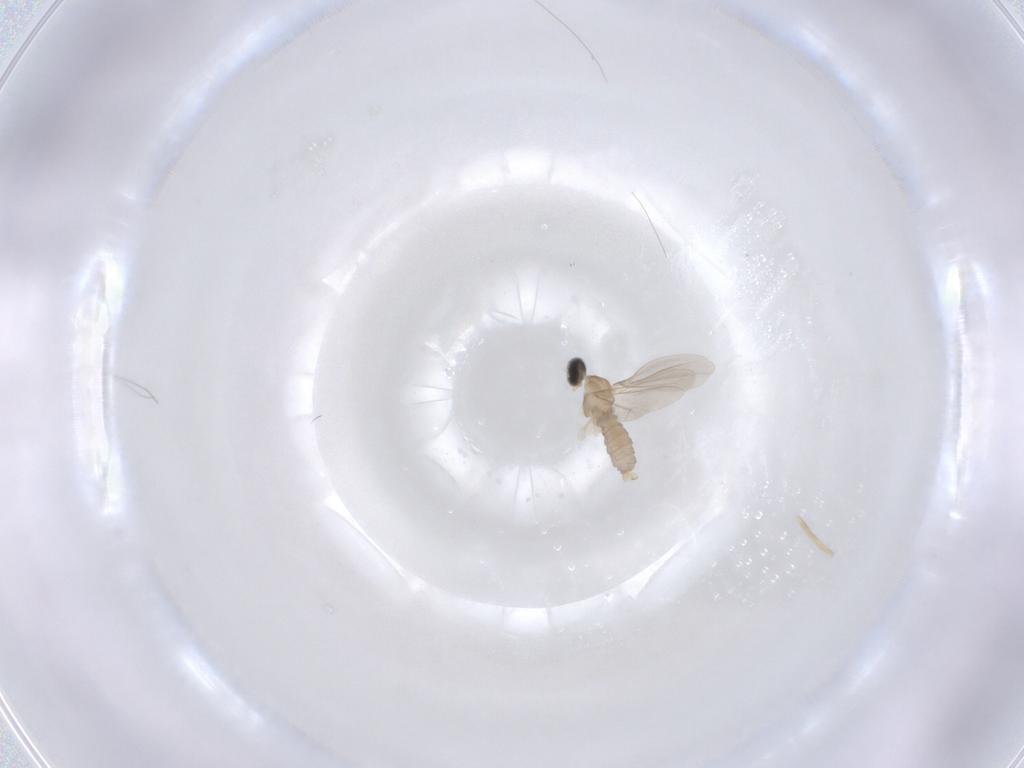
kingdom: Animalia
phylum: Arthropoda
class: Insecta
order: Diptera
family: Cecidomyiidae
